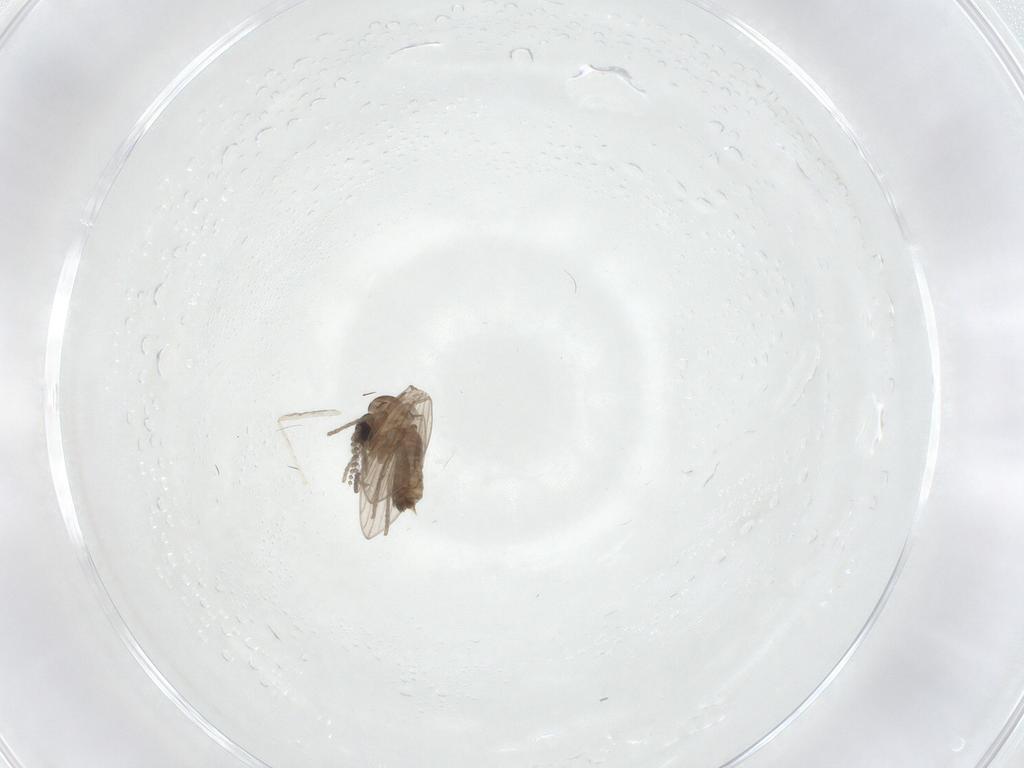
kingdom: Animalia
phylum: Arthropoda
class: Insecta
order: Diptera
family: Psychodidae
